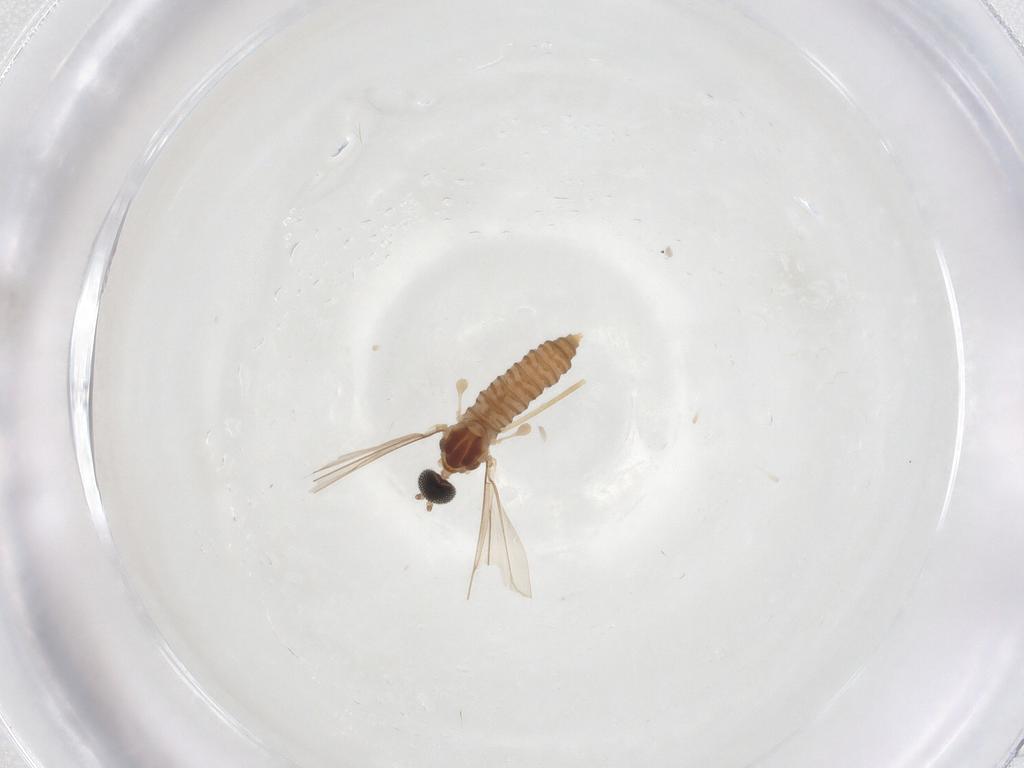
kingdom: Animalia
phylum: Arthropoda
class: Insecta
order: Diptera
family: Cecidomyiidae
